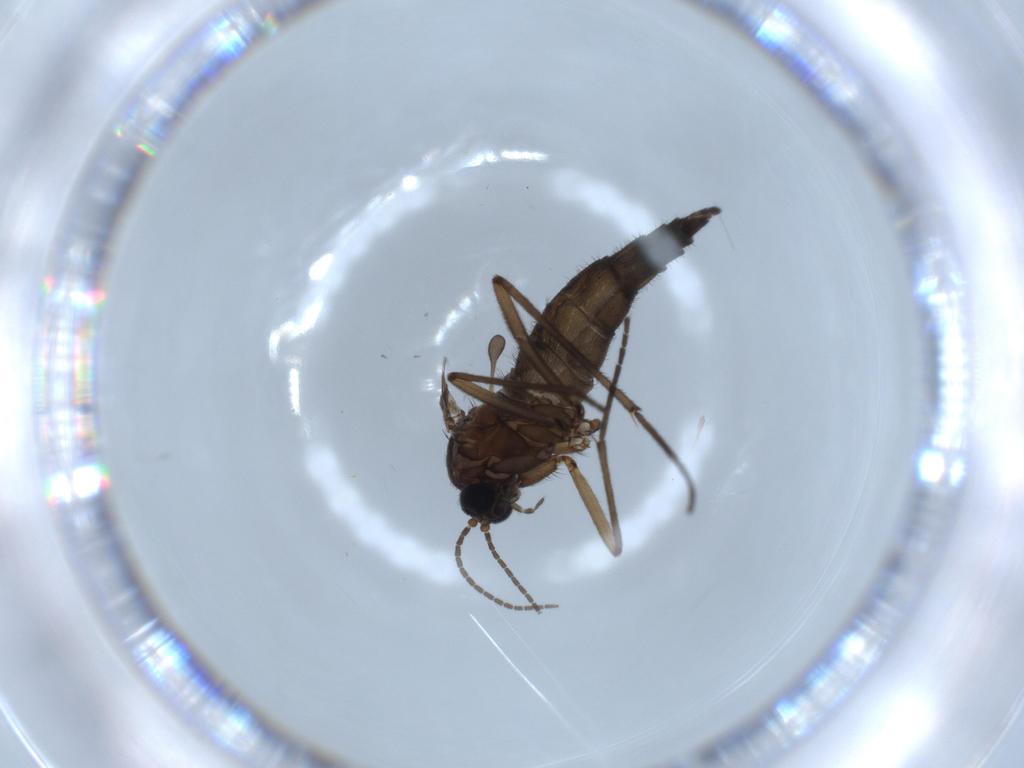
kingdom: Animalia
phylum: Arthropoda
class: Insecta
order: Diptera
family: Sciaridae
